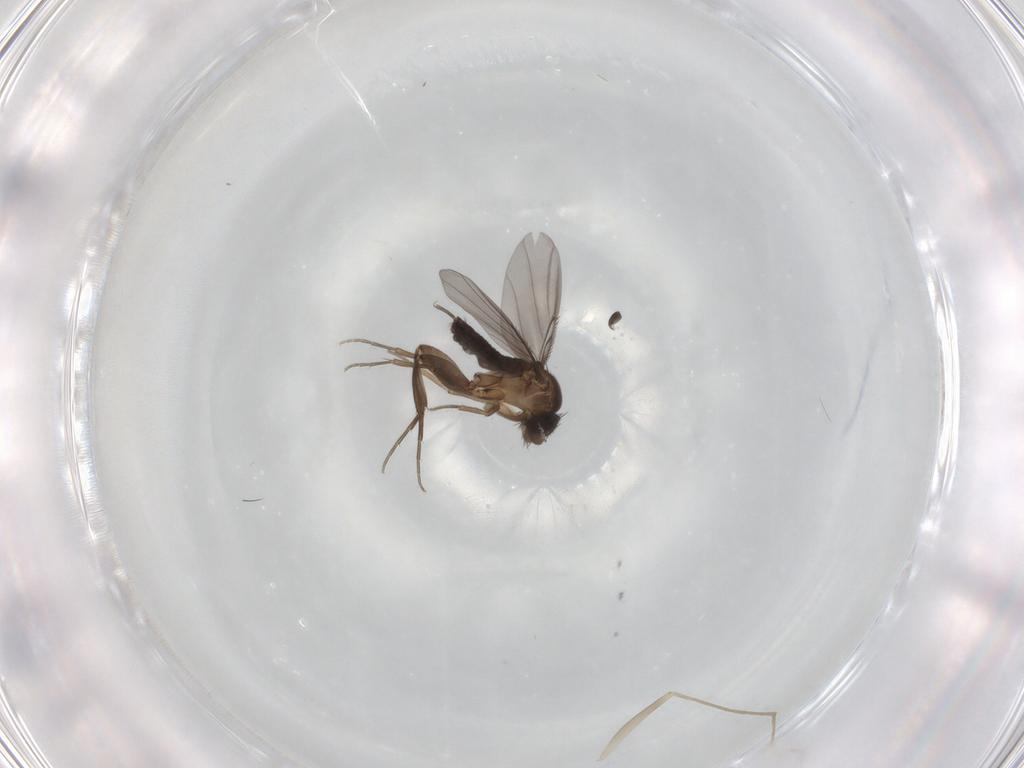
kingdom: Animalia
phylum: Arthropoda
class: Insecta
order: Diptera
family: Phoridae
